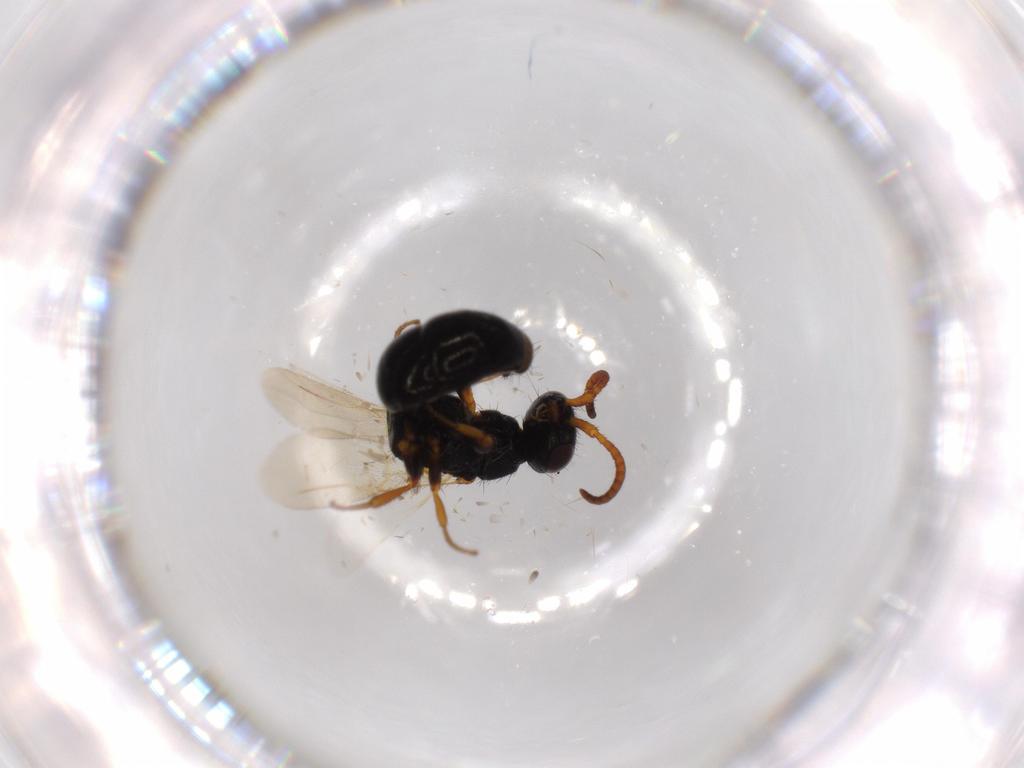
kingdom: Animalia
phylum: Arthropoda
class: Insecta
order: Hymenoptera
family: Bethylidae
